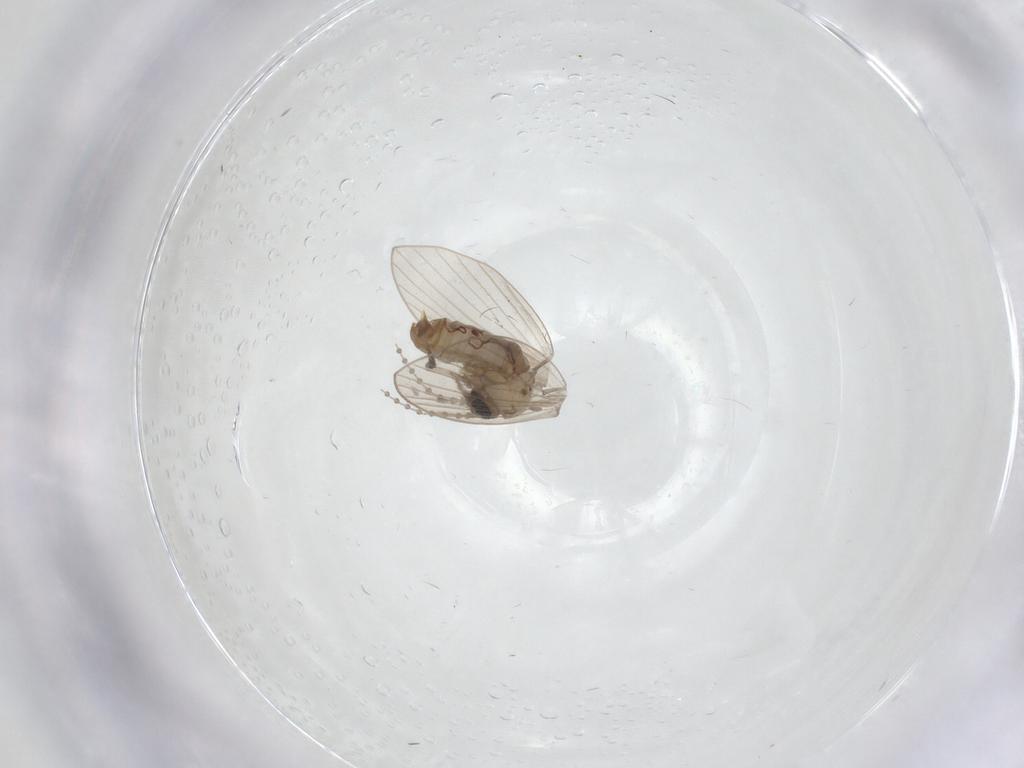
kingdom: Animalia
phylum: Arthropoda
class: Insecta
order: Diptera
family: Psychodidae
